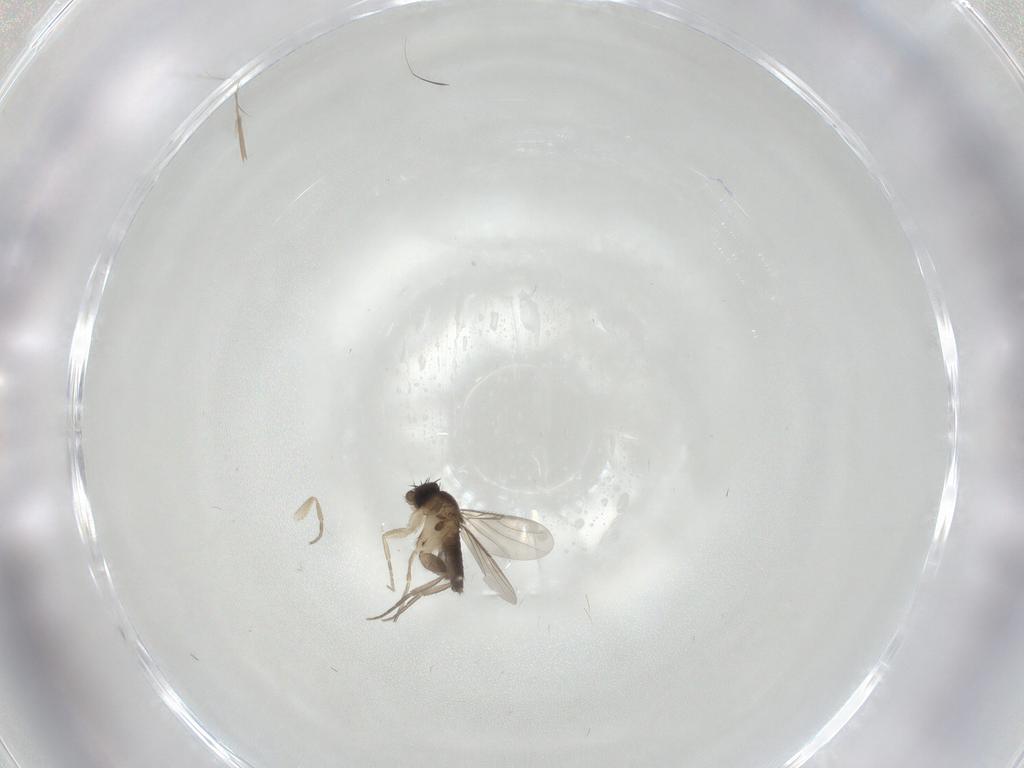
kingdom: Animalia
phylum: Arthropoda
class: Insecta
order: Diptera
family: Phoridae
